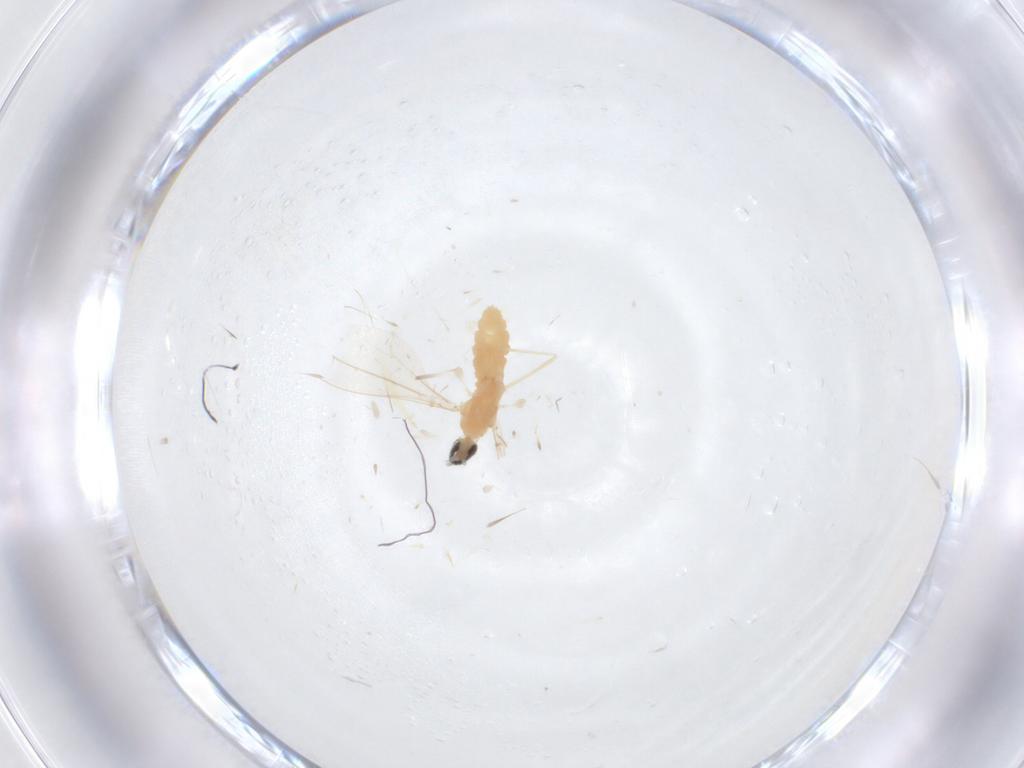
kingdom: Animalia
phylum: Arthropoda
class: Insecta
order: Diptera
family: Cecidomyiidae
